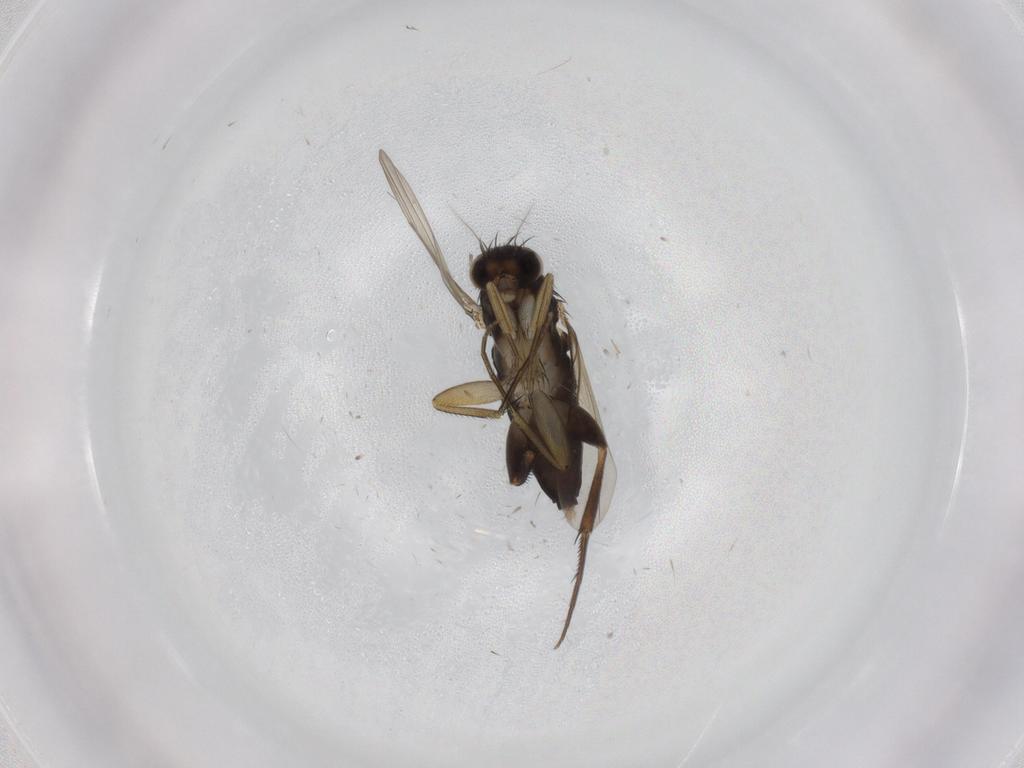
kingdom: Animalia
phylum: Arthropoda
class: Insecta
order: Diptera
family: Phoridae
